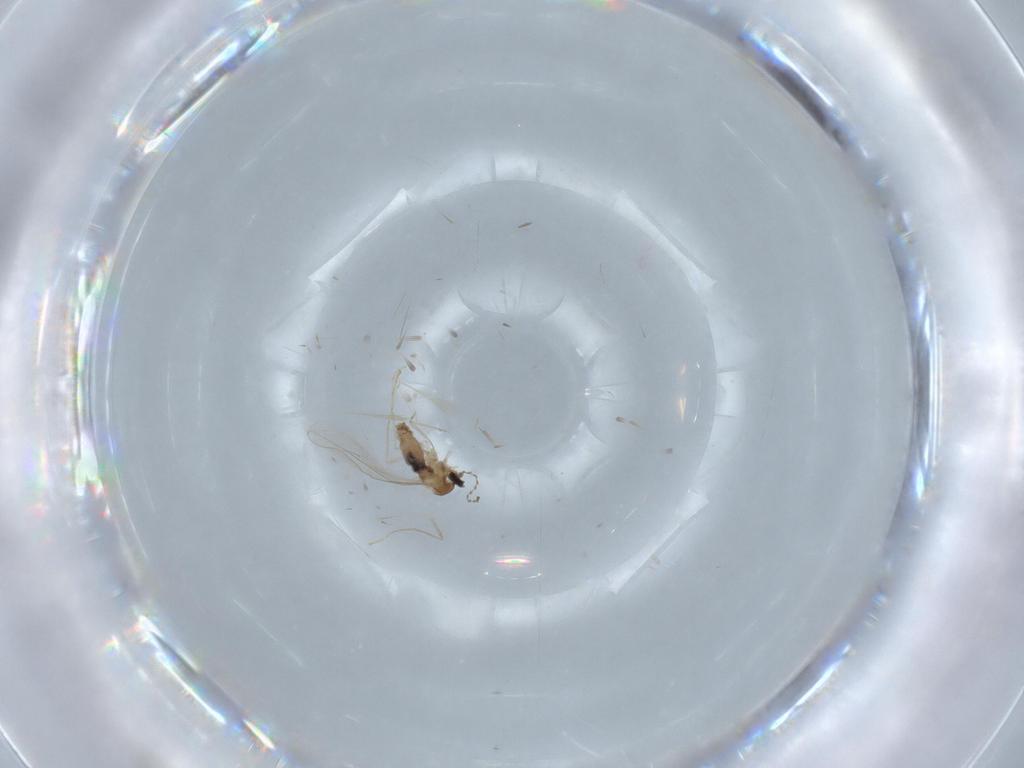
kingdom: Animalia
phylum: Arthropoda
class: Insecta
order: Diptera
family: Cecidomyiidae
